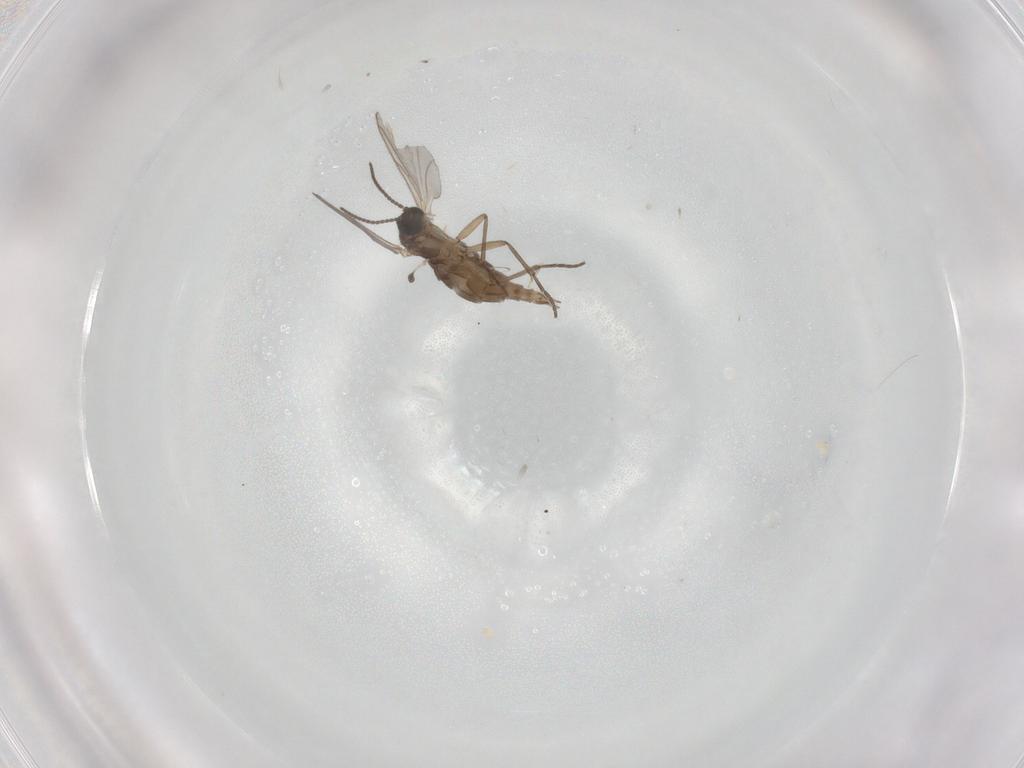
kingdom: Animalia
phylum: Arthropoda
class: Insecta
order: Diptera
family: Sciaridae
